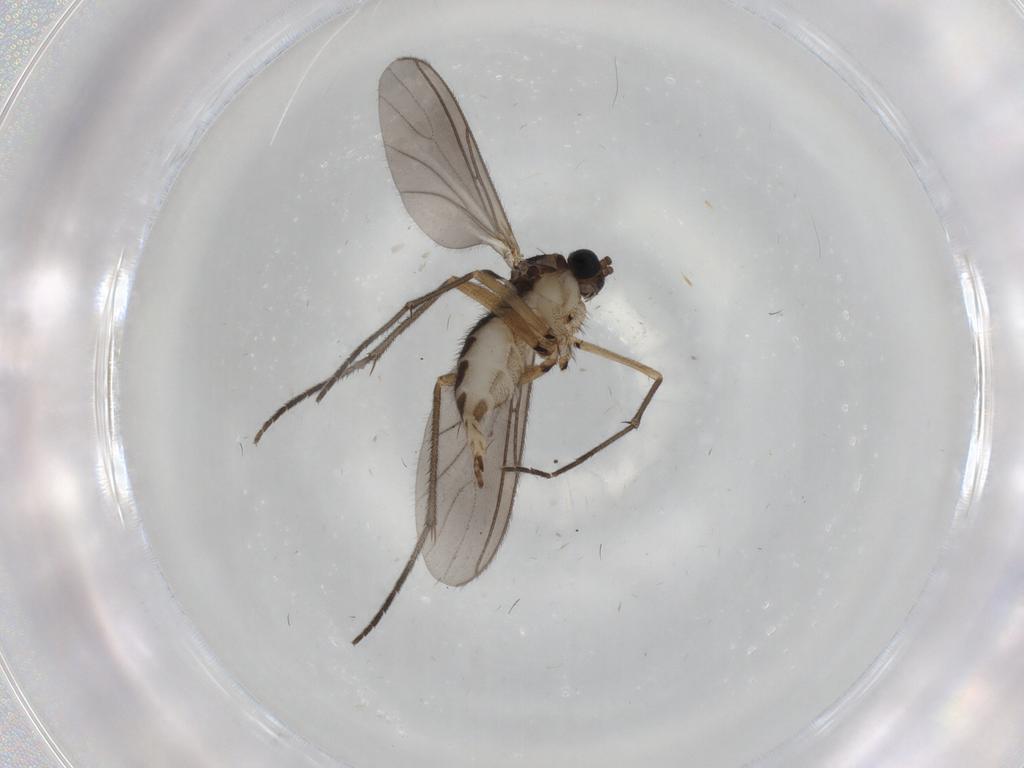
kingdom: Animalia
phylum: Arthropoda
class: Insecta
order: Diptera
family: Sciaridae
